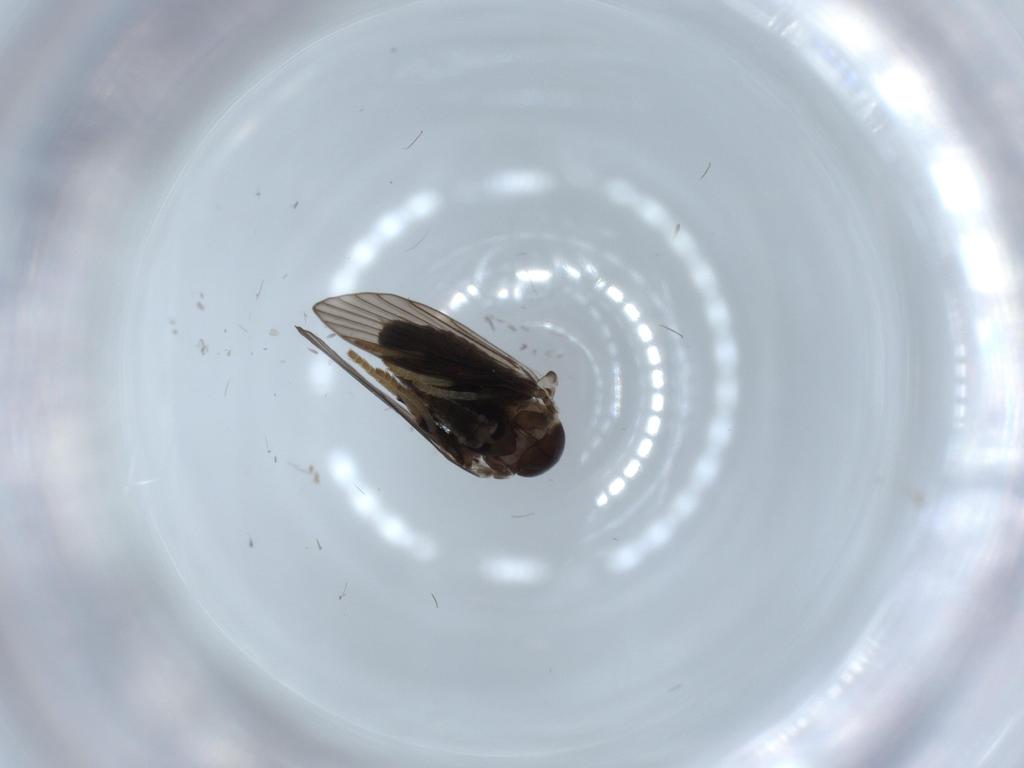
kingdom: Animalia
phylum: Arthropoda
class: Insecta
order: Diptera
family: Psychodidae
